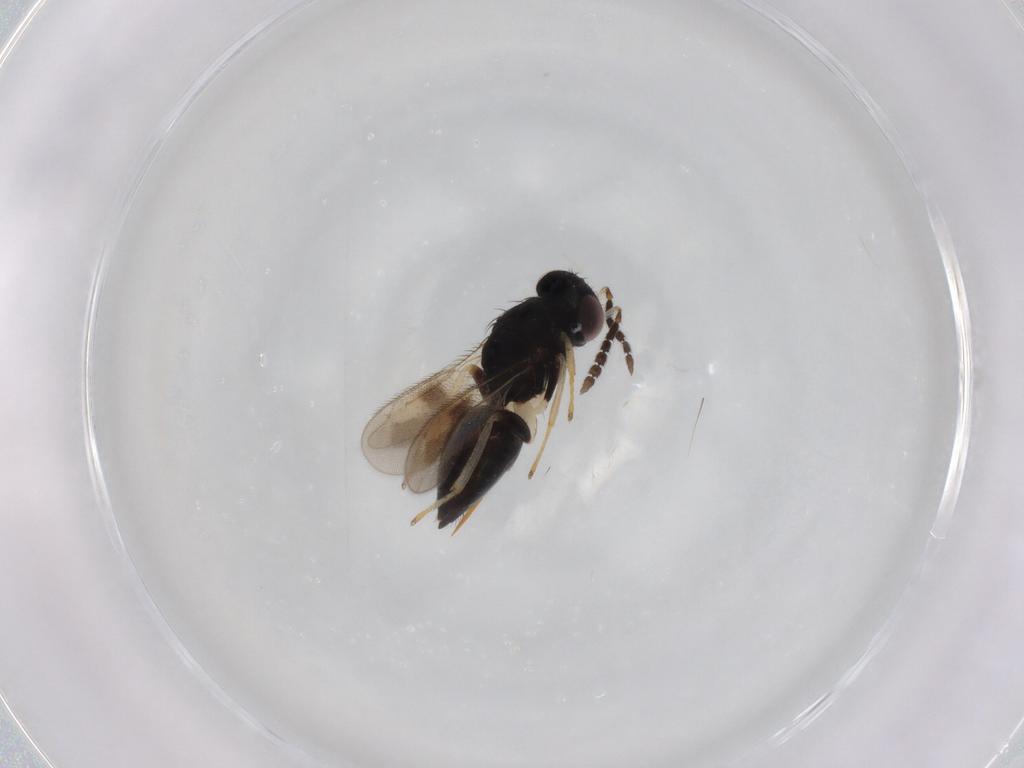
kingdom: Animalia
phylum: Arthropoda
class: Insecta
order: Hymenoptera
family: Eulophidae
